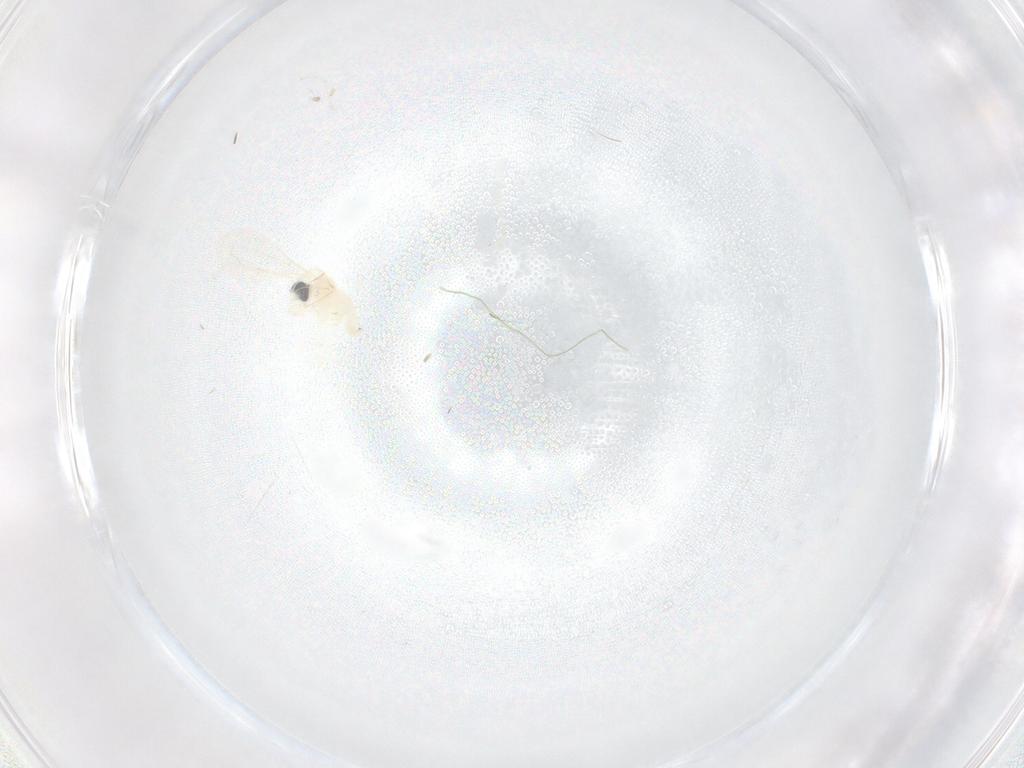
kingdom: Animalia
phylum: Arthropoda
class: Insecta
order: Diptera
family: Cecidomyiidae
